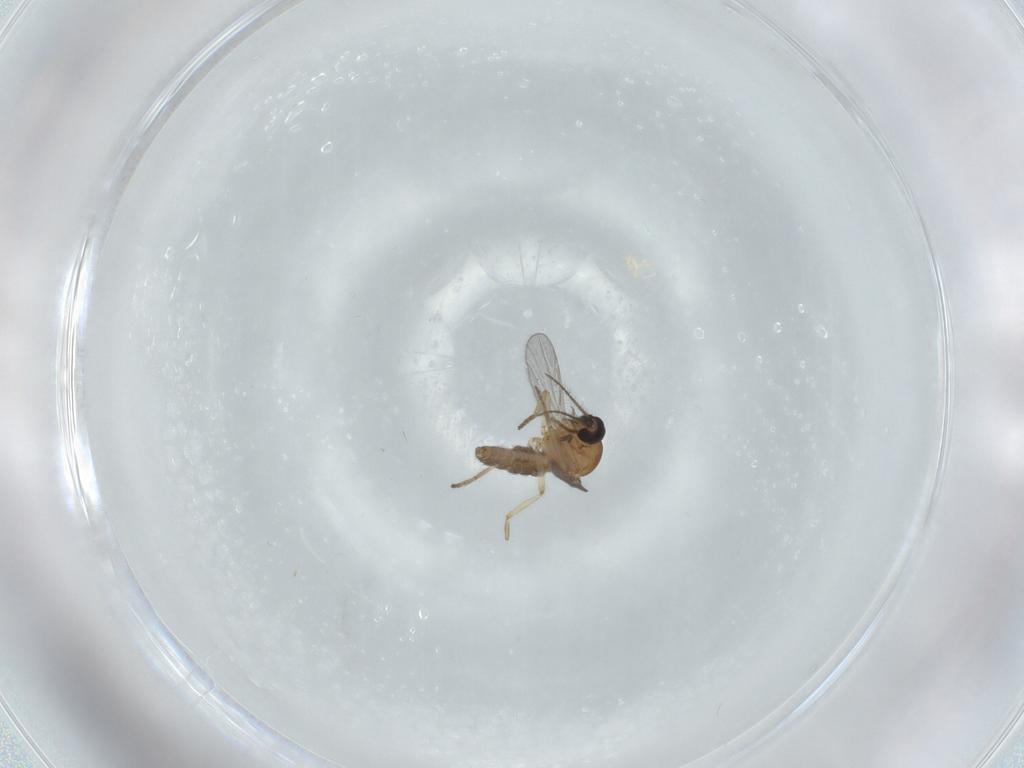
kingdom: Animalia
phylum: Arthropoda
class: Insecta
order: Diptera
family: Ceratopogonidae
